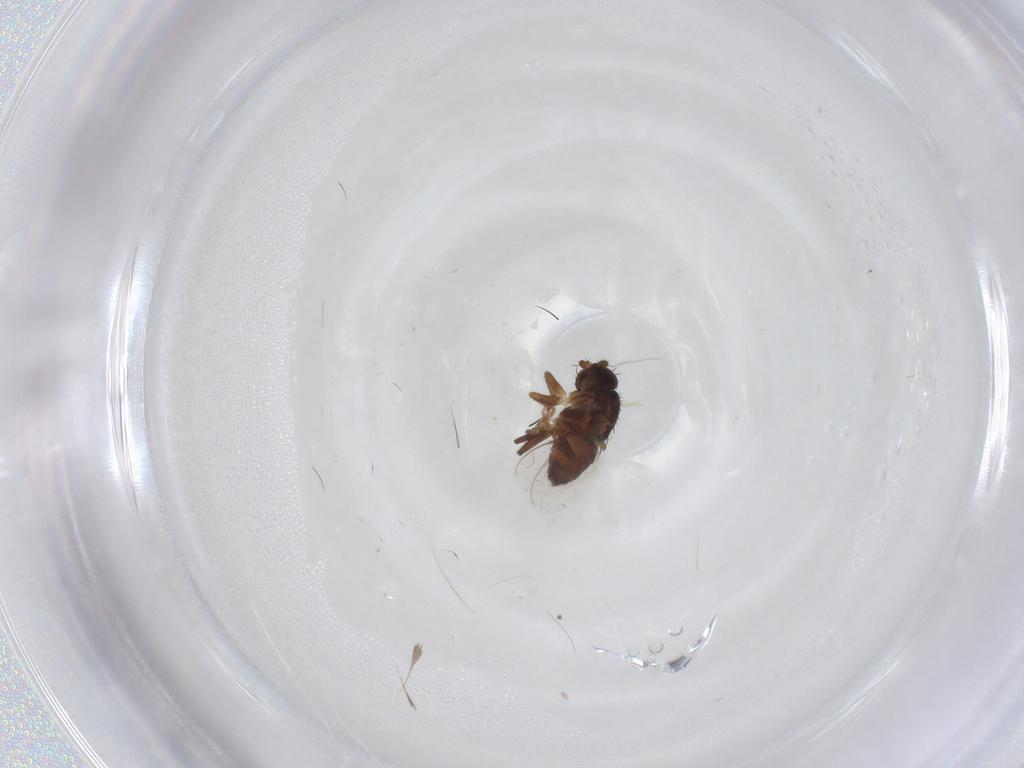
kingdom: Animalia
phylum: Arthropoda
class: Insecta
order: Diptera
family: Sphaeroceridae
